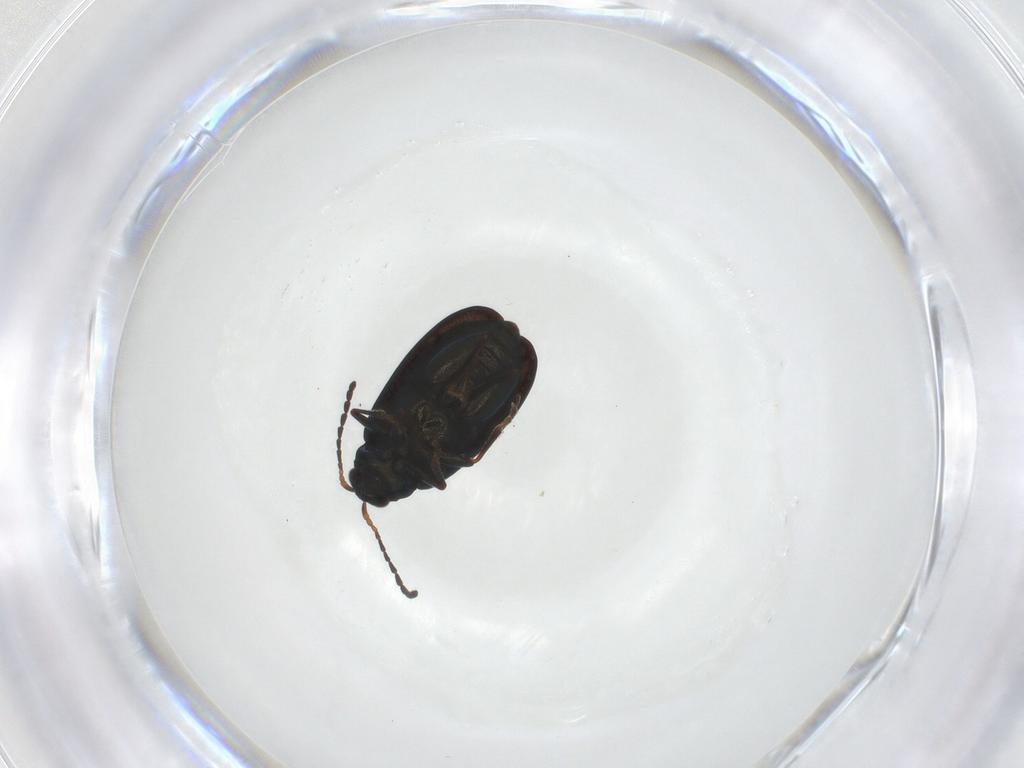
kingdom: Animalia
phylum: Arthropoda
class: Insecta
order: Coleoptera
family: Chrysomelidae
